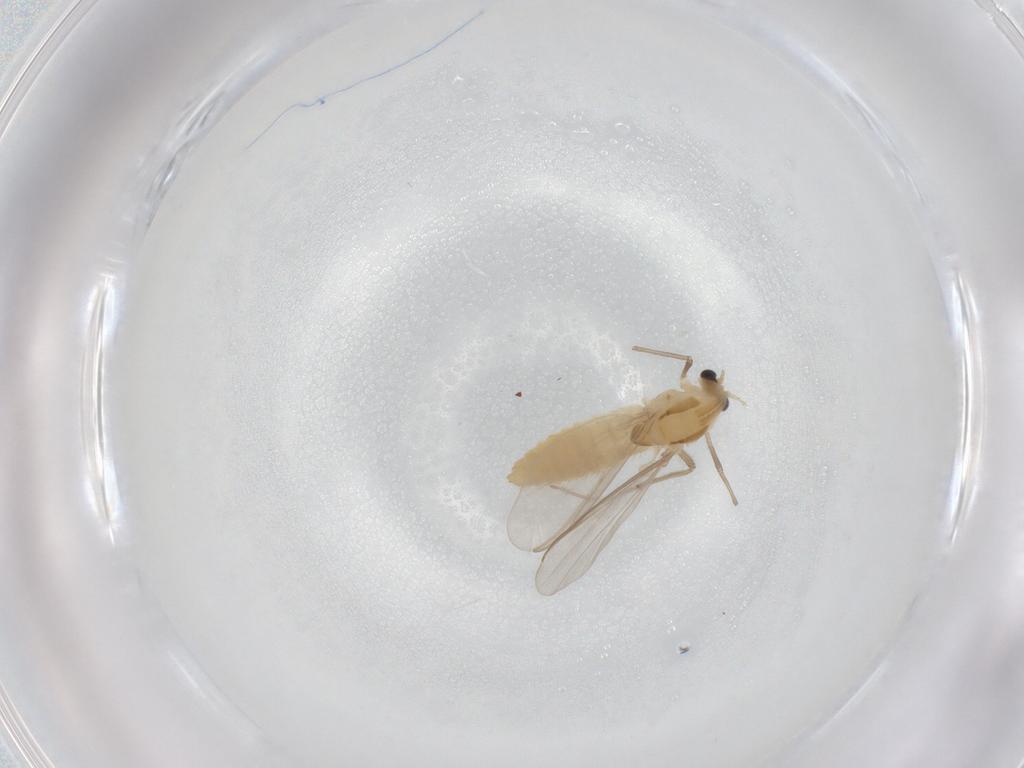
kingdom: Animalia
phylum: Arthropoda
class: Insecta
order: Diptera
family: Chironomidae
